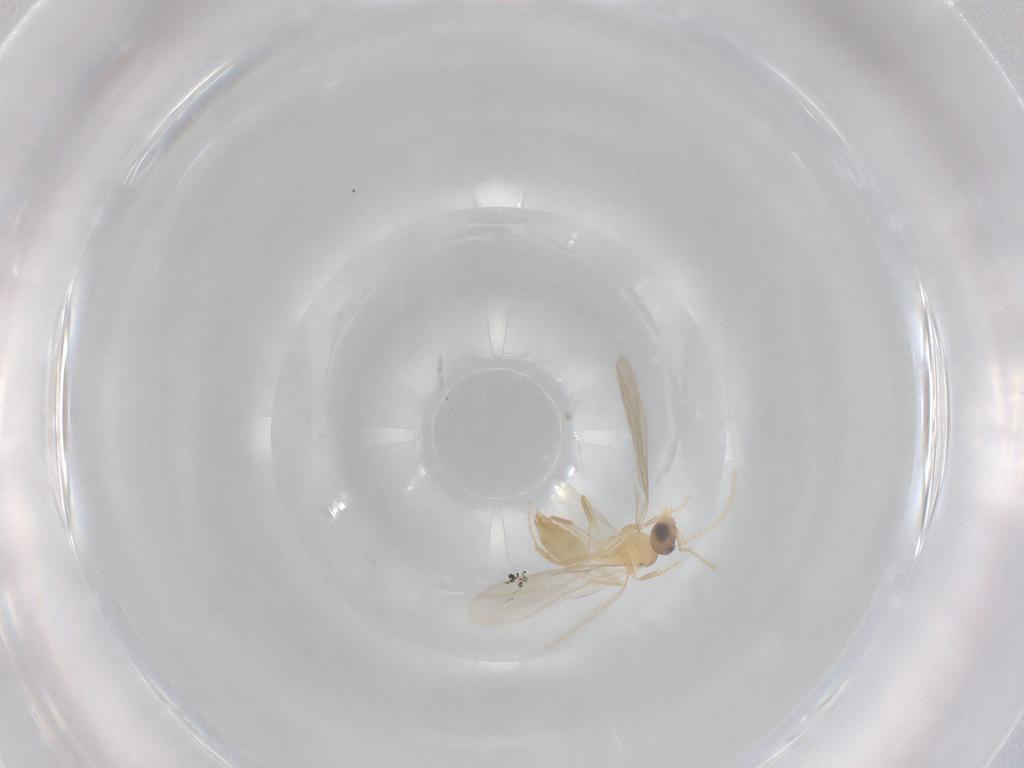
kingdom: Animalia
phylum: Arthropoda
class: Insecta
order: Hymenoptera
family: Formicidae
